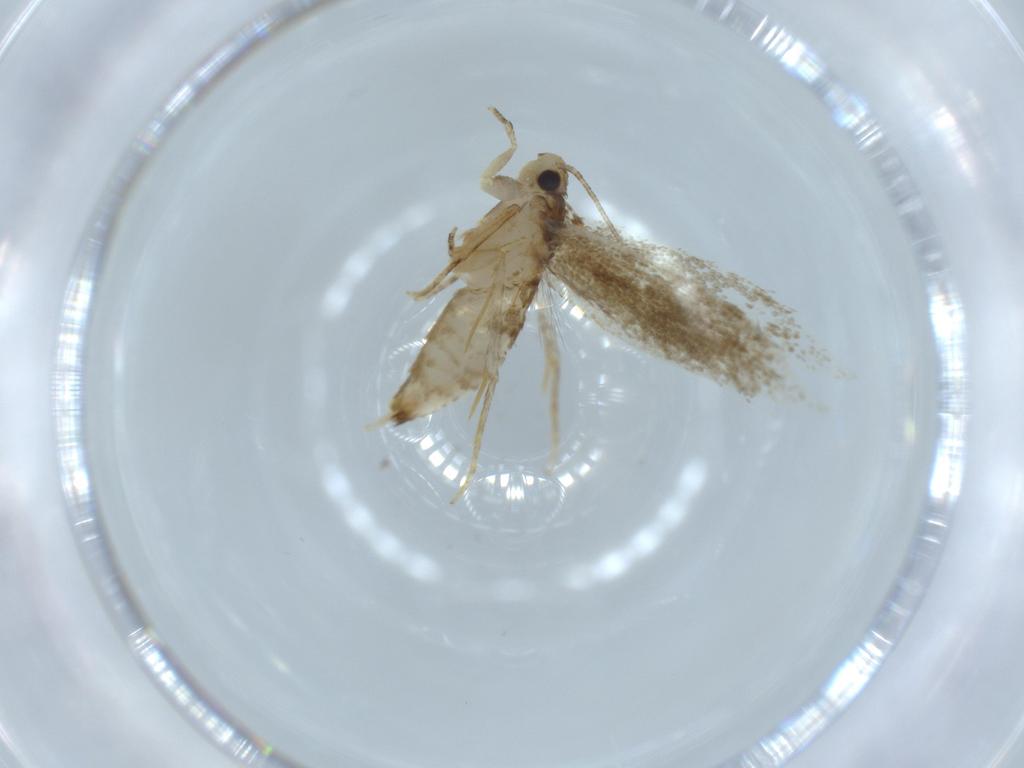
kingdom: Animalia
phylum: Arthropoda
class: Insecta
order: Lepidoptera
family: Tineidae
